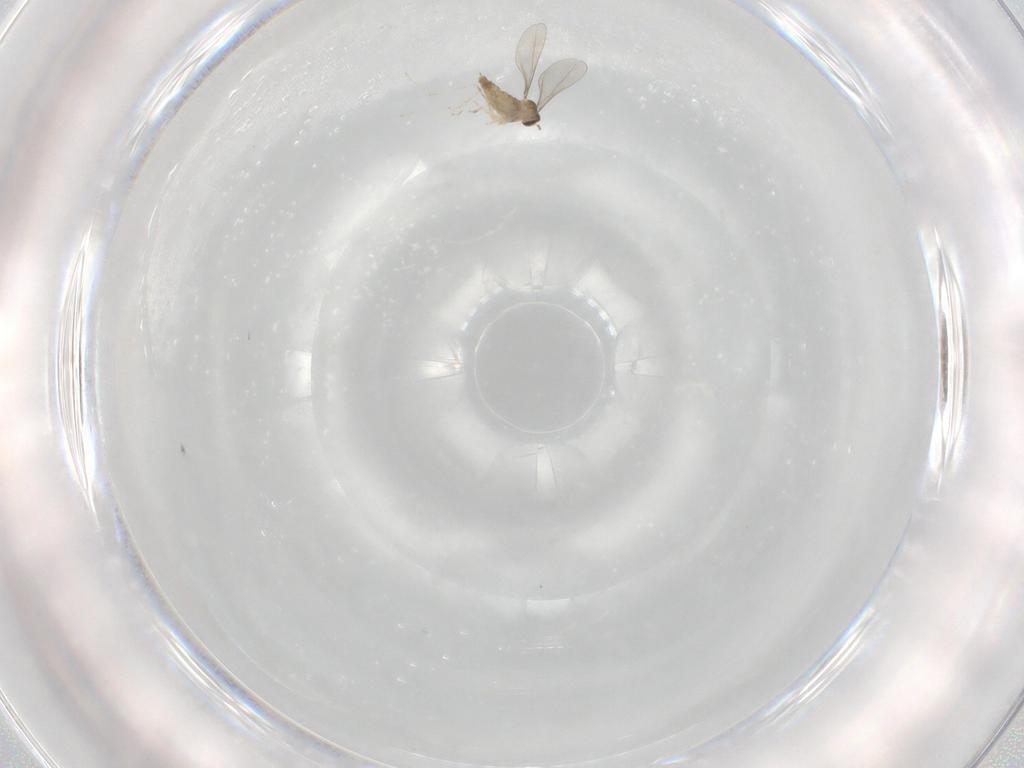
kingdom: Animalia
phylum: Arthropoda
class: Insecta
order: Diptera
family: Cecidomyiidae
